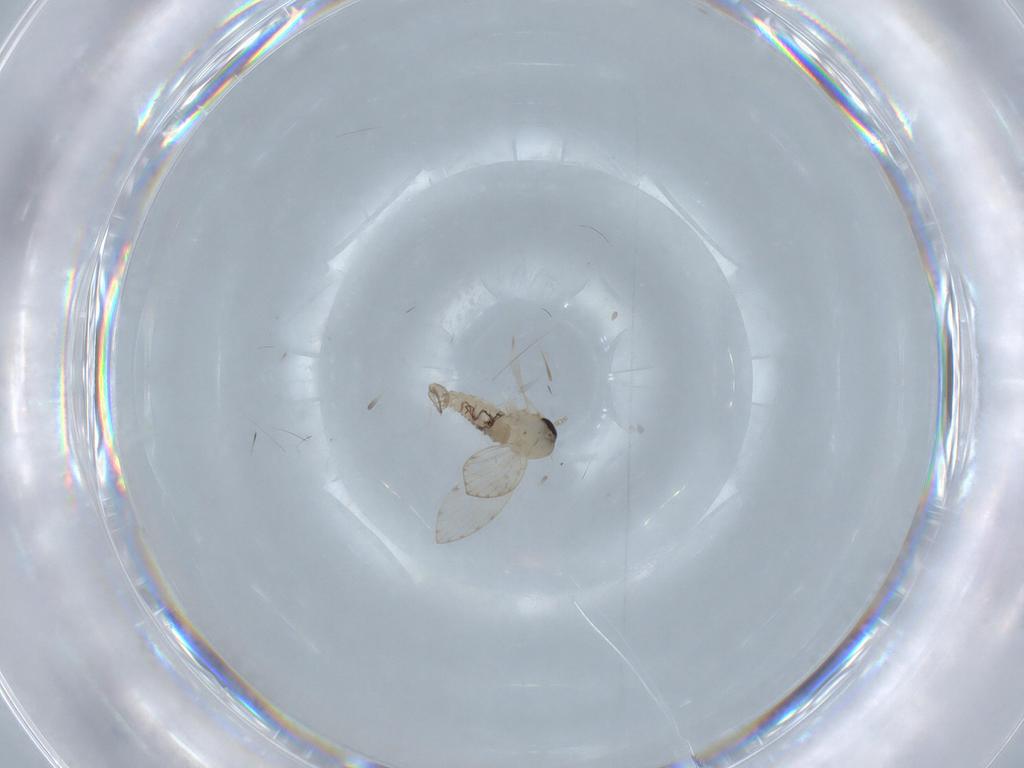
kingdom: Animalia
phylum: Arthropoda
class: Insecta
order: Diptera
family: Psychodidae
